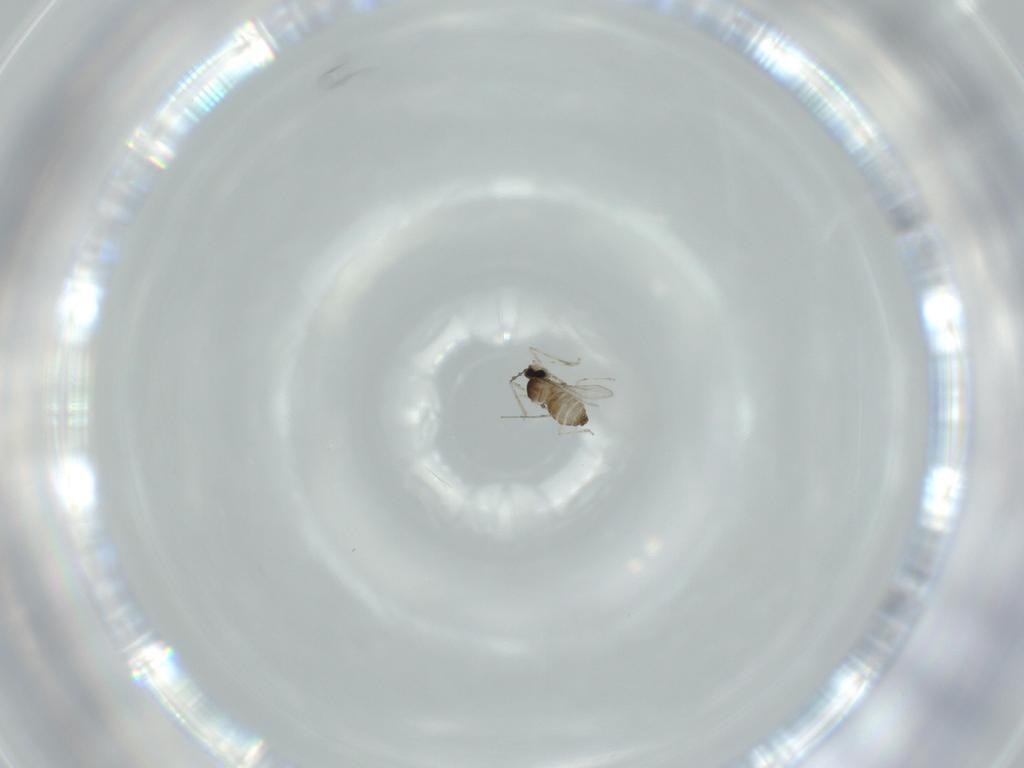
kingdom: Animalia
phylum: Arthropoda
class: Insecta
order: Diptera
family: Cecidomyiidae
